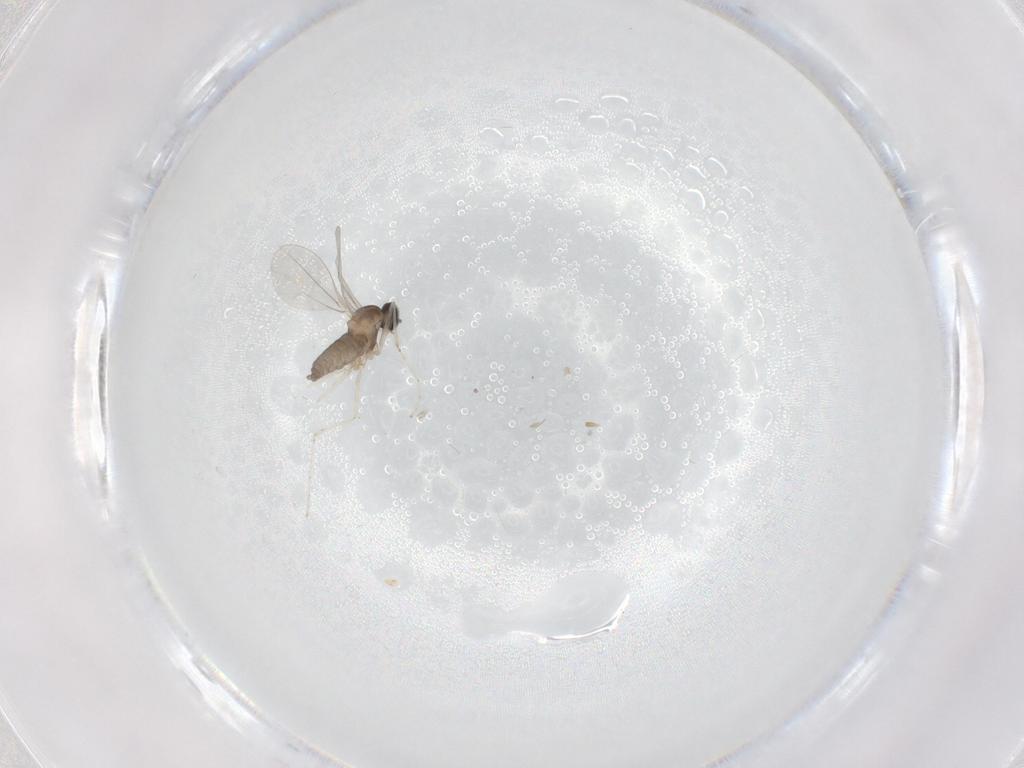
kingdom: Animalia
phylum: Arthropoda
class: Insecta
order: Diptera
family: Cecidomyiidae
